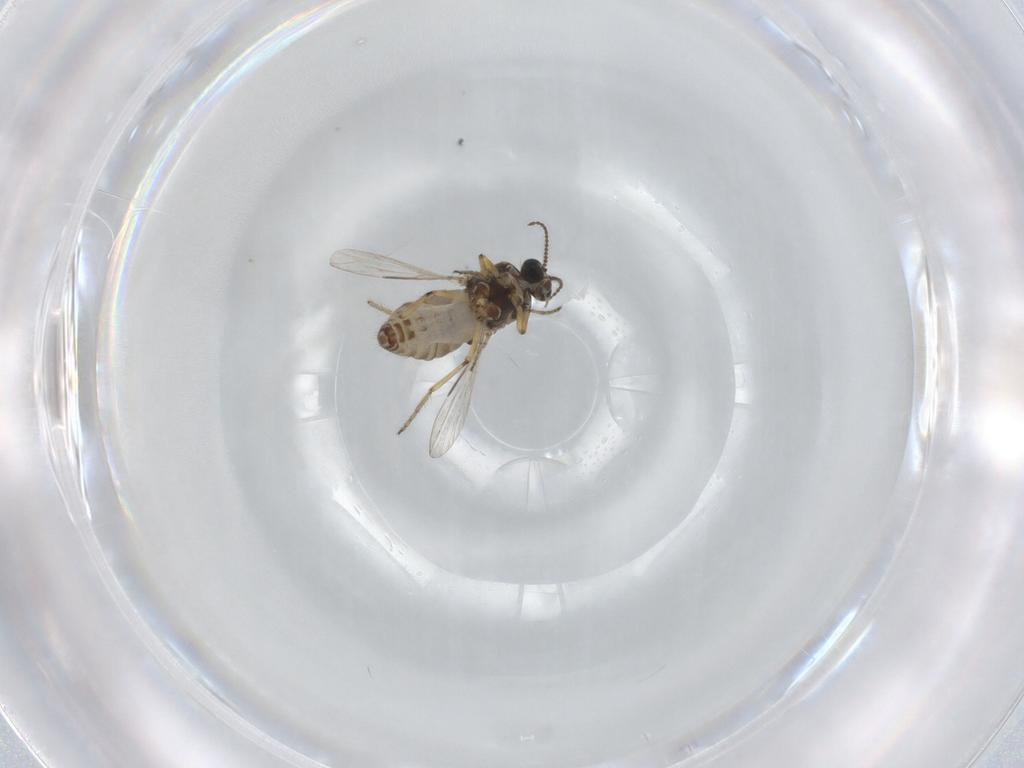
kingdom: Animalia
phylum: Arthropoda
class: Insecta
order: Diptera
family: Ceratopogonidae
